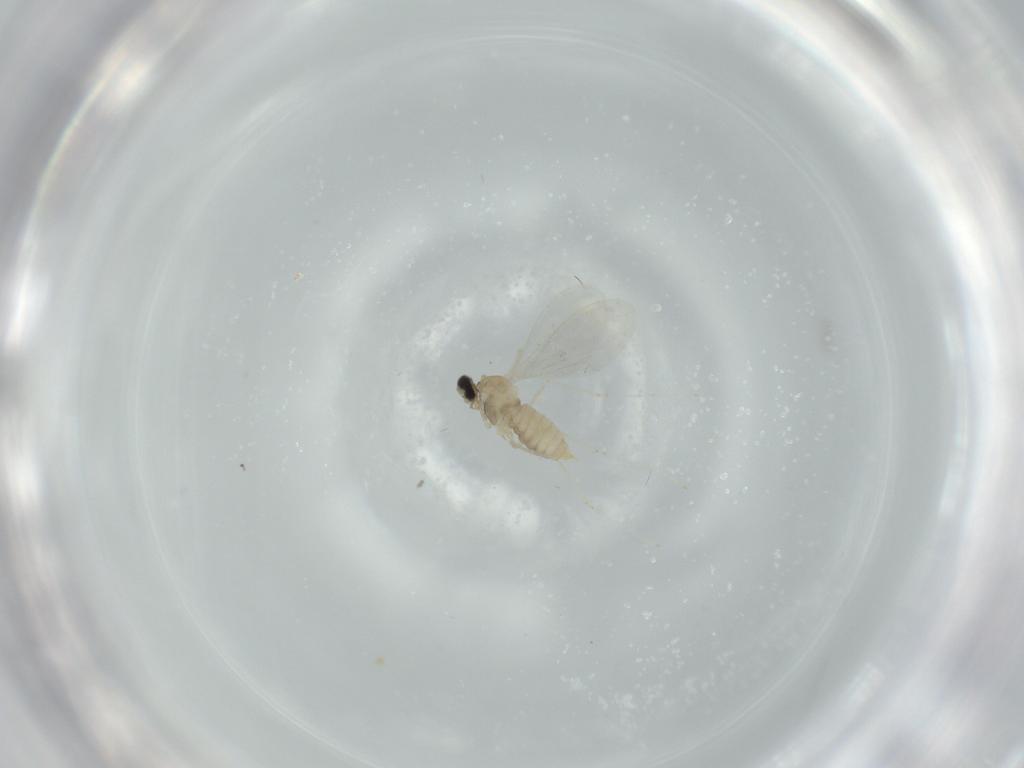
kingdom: Animalia
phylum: Arthropoda
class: Insecta
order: Diptera
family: Cecidomyiidae
